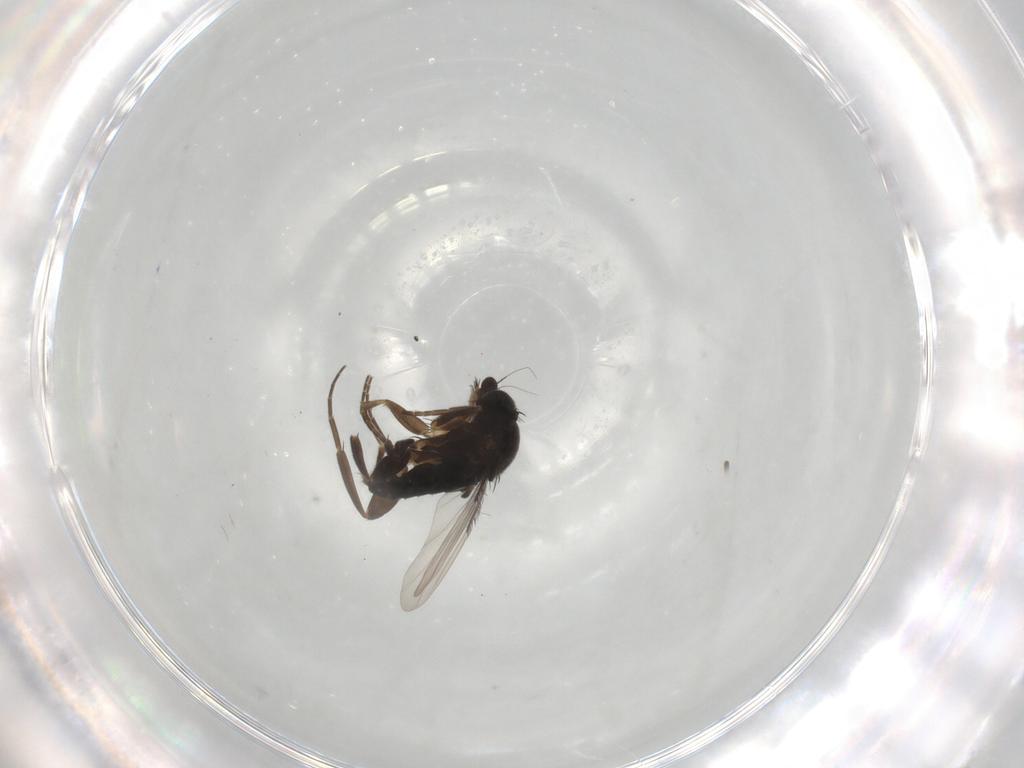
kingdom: Animalia
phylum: Arthropoda
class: Insecta
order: Diptera
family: Phoridae
